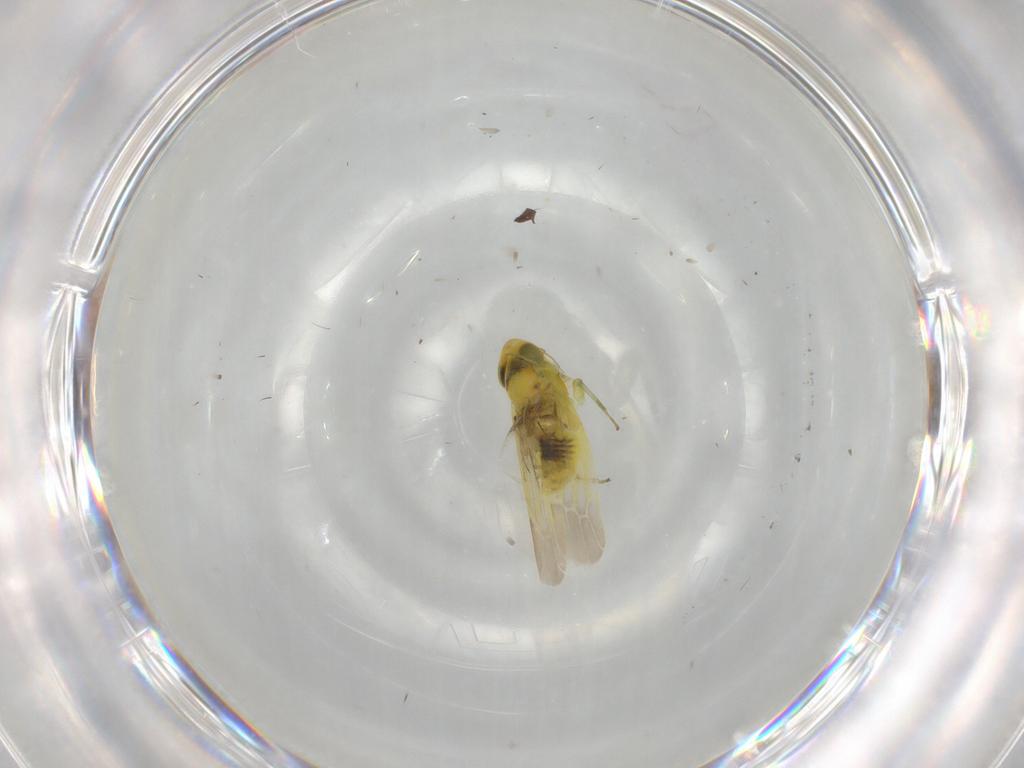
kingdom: Animalia
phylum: Arthropoda
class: Insecta
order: Hemiptera
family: Cicadellidae
